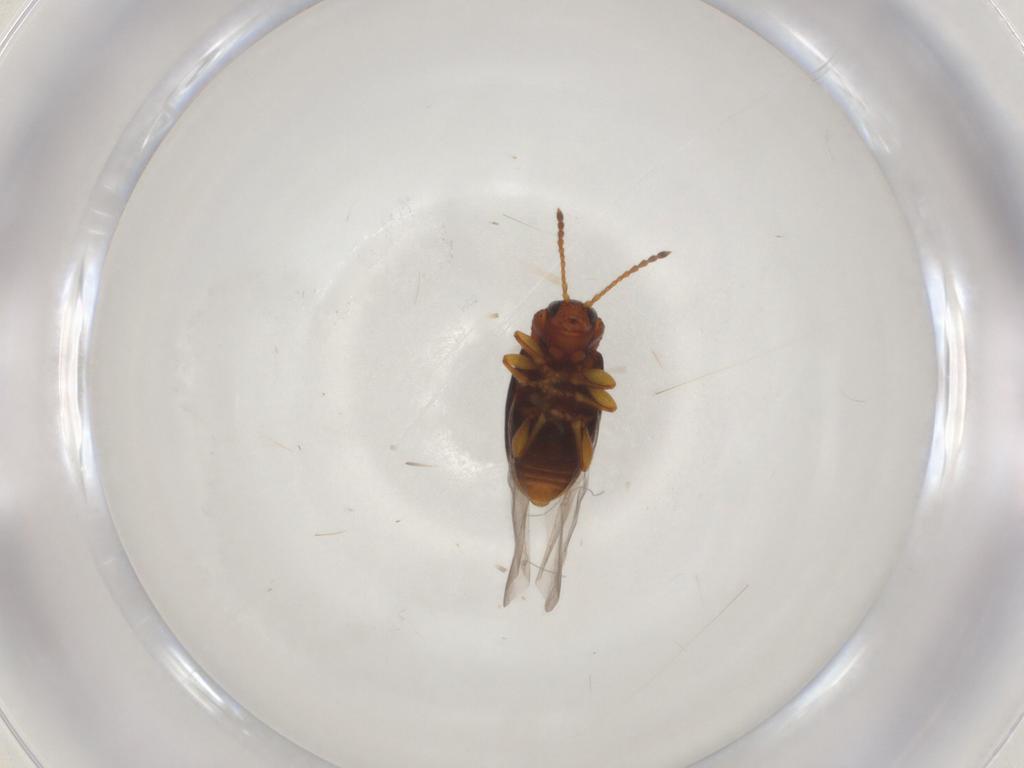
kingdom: Animalia
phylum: Arthropoda
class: Insecta
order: Coleoptera
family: Chrysomelidae
